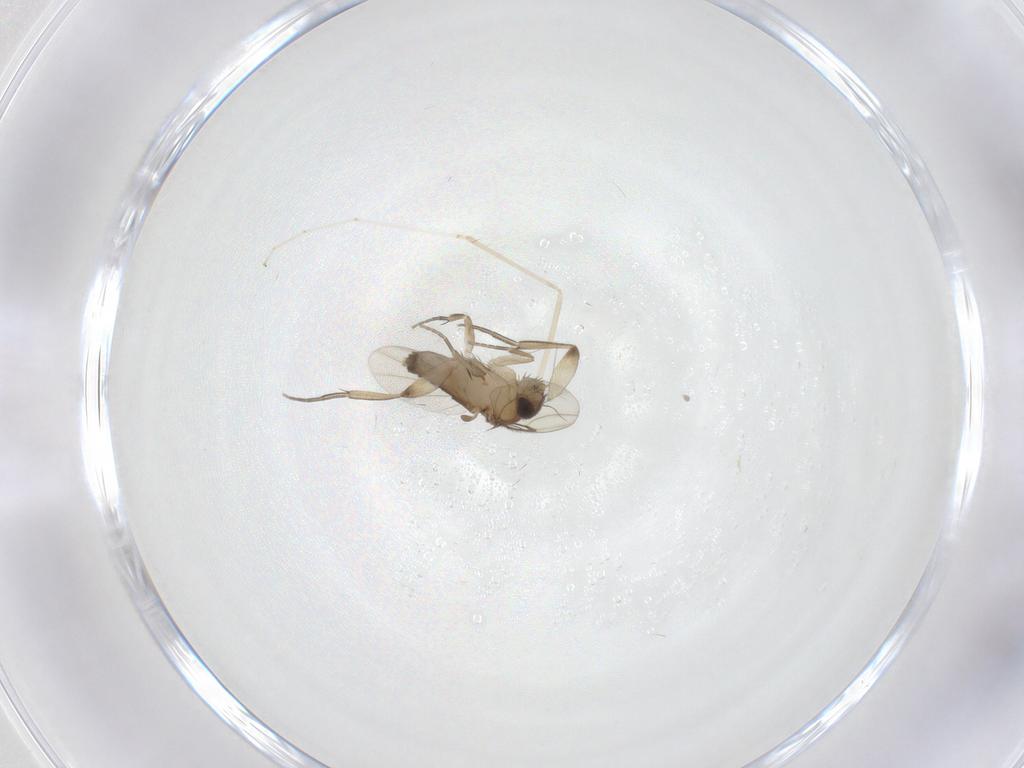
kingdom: Animalia
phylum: Arthropoda
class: Insecta
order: Diptera
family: Phoridae
